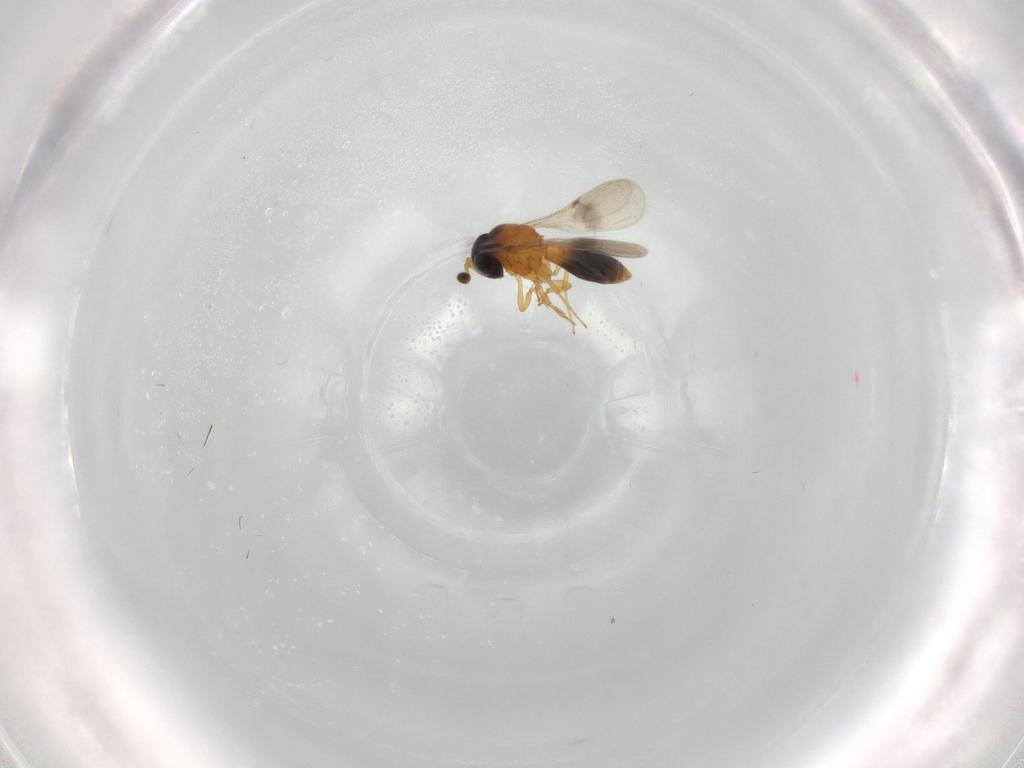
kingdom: Animalia
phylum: Arthropoda
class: Insecta
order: Hymenoptera
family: Scelionidae
